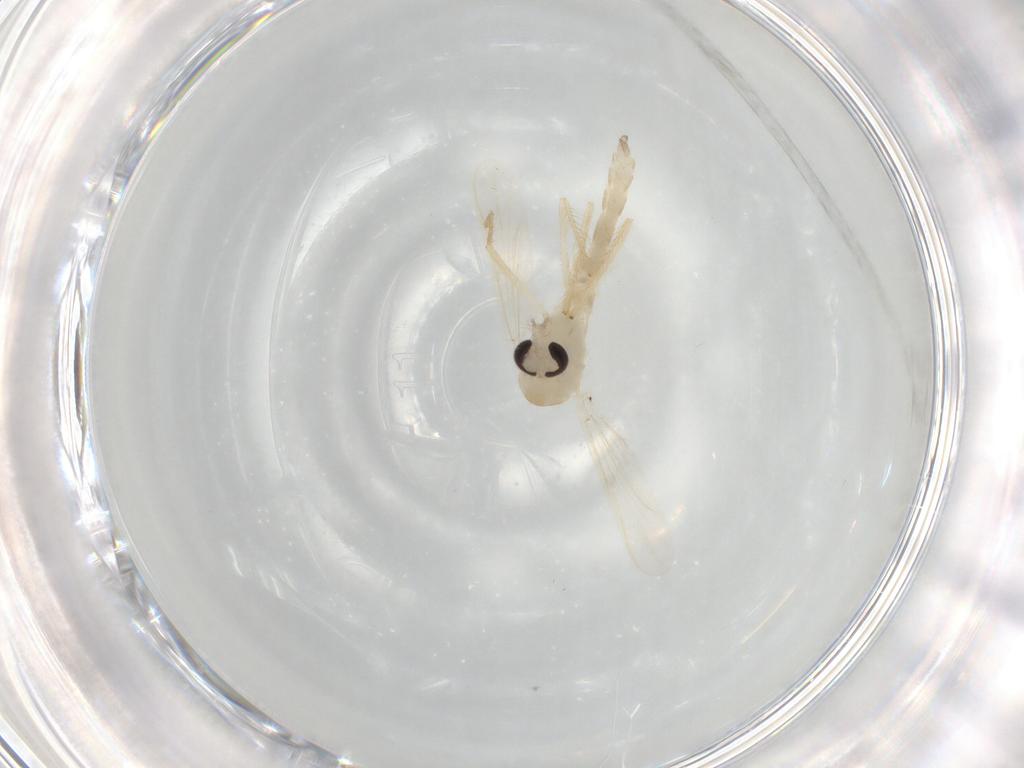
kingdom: Animalia
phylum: Arthropoda
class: Insecta
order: Diptera
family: Chironomidae
